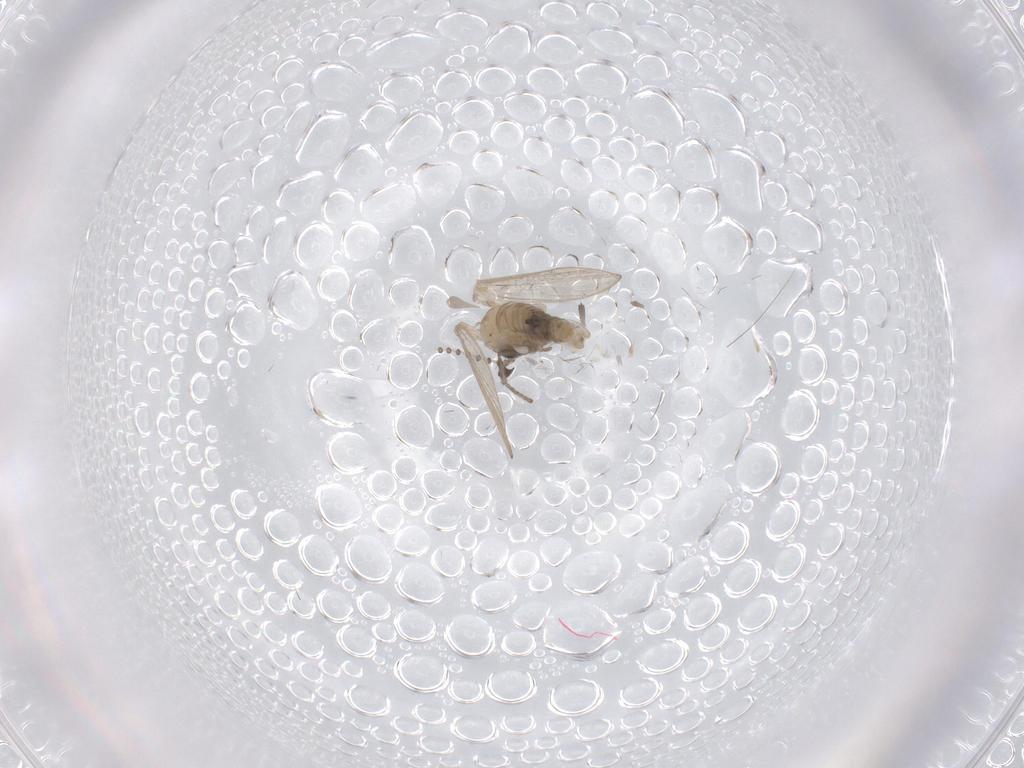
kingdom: Animalia
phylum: Arthropoda
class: Insecta
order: Diptera
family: Psychodidae
